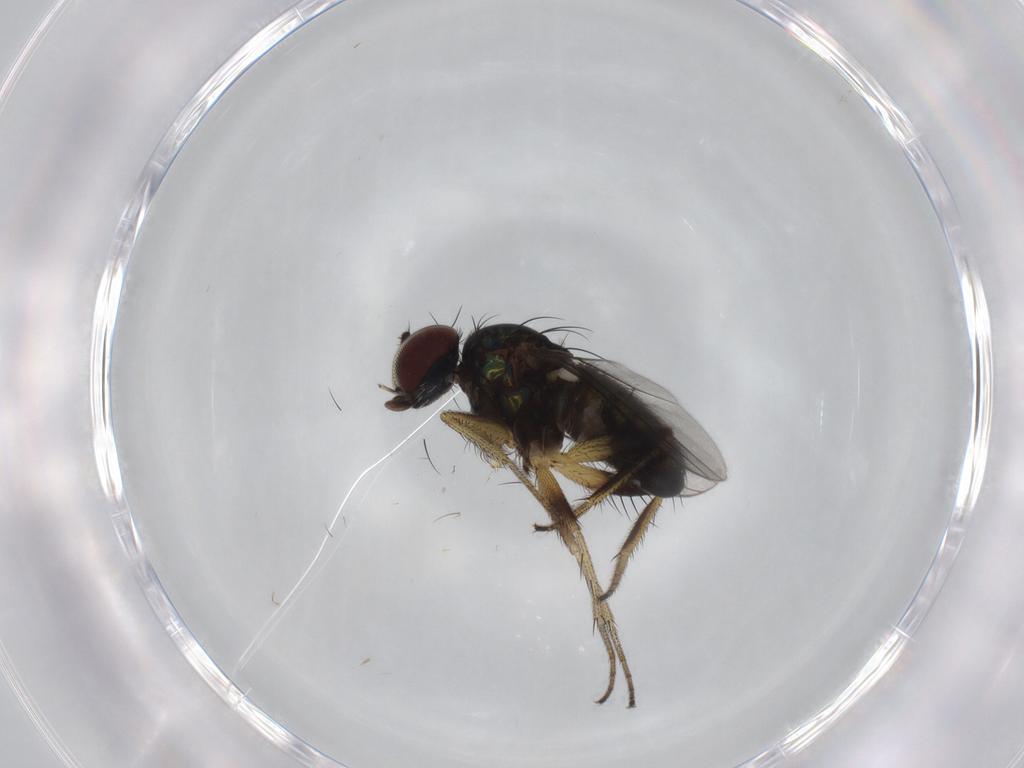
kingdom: Animalia
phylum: Arthropoda
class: Insecta
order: Diptera
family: Dolichopodidae
